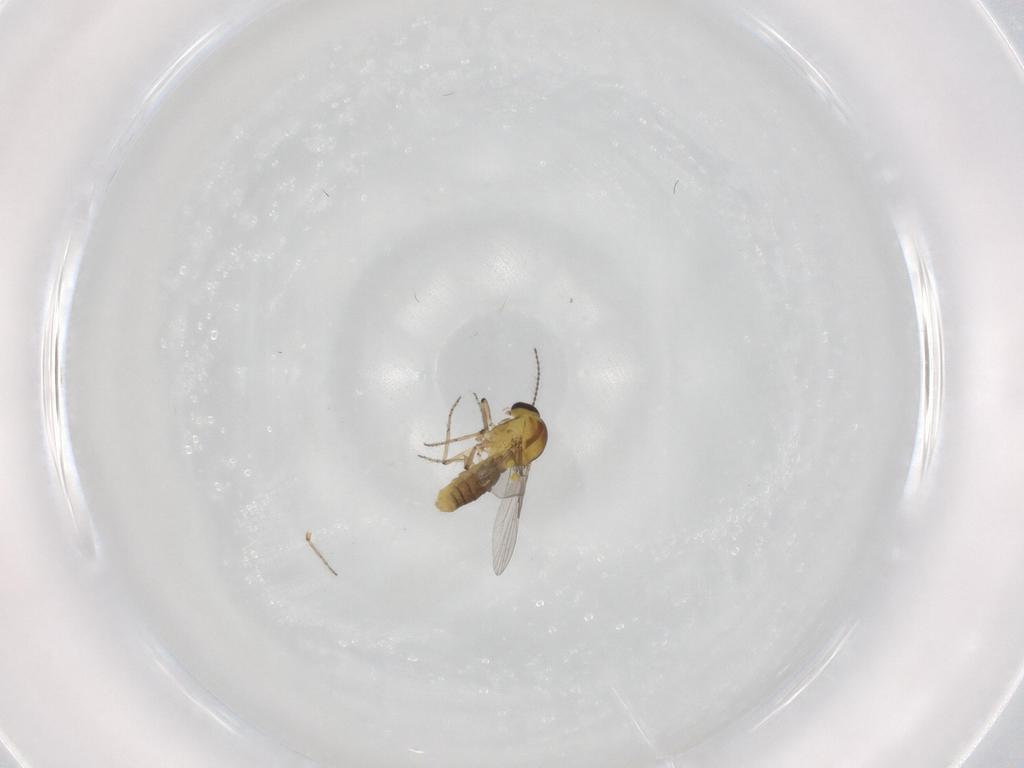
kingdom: Animalia
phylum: Arthropoda
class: Insecta
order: Diptera
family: Ceratopogonidae
